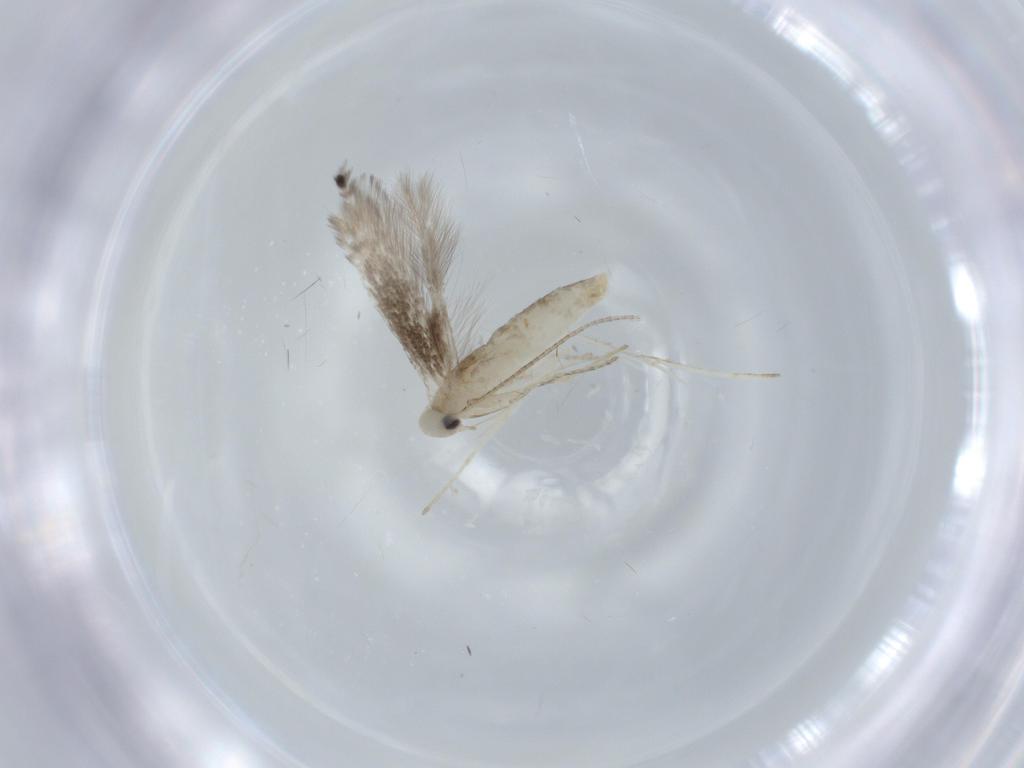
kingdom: Animalia
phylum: Arthropoda
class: Insecta
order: Lepidoptera
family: Gracillariidae
